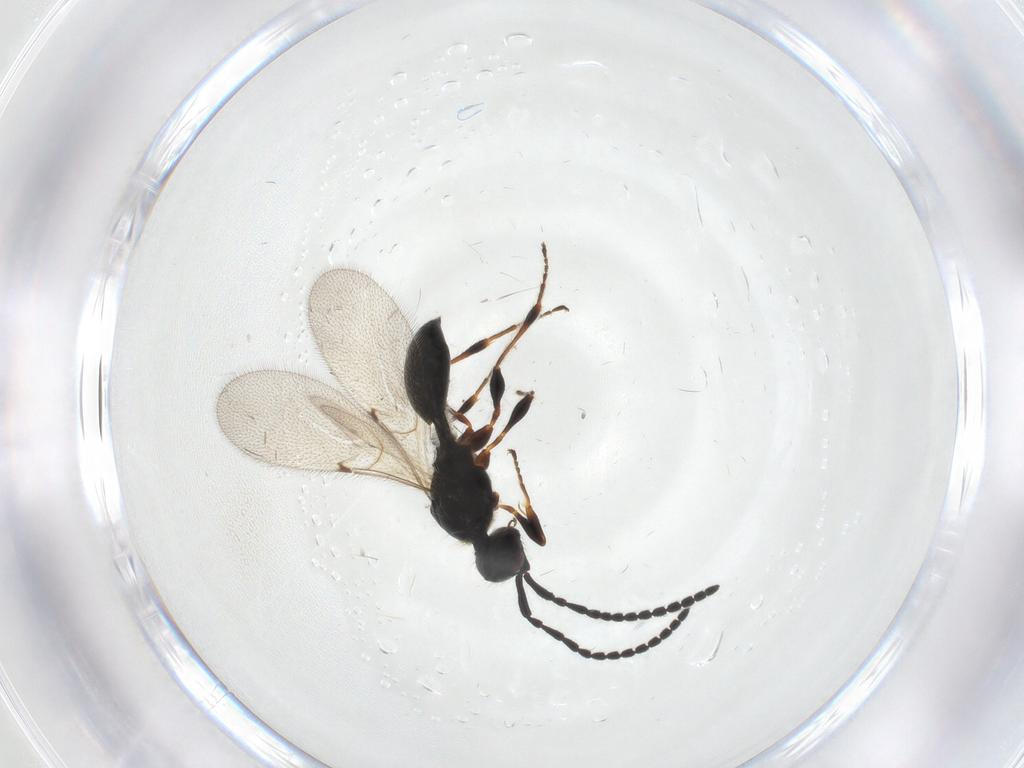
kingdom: Animalia
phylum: Arthropoda
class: Insecta
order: Hymenoptera
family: Diapriidae
